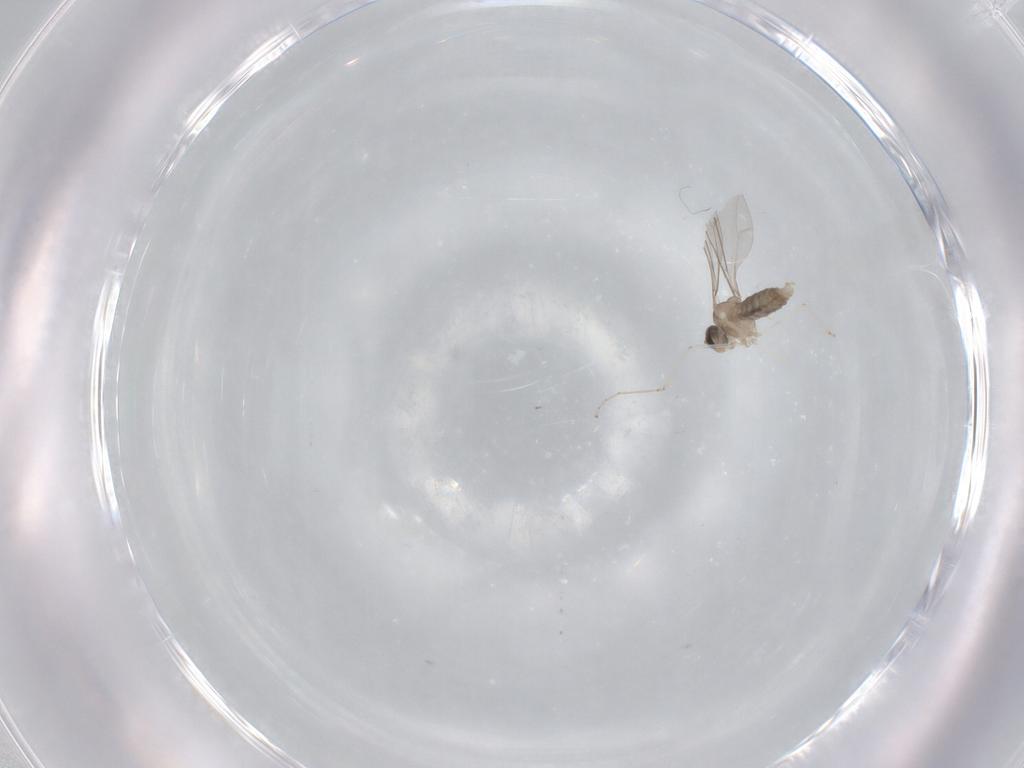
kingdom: Animalia
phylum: Arthropoda
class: Insecta
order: Diptera
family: Cecidomyiidae
